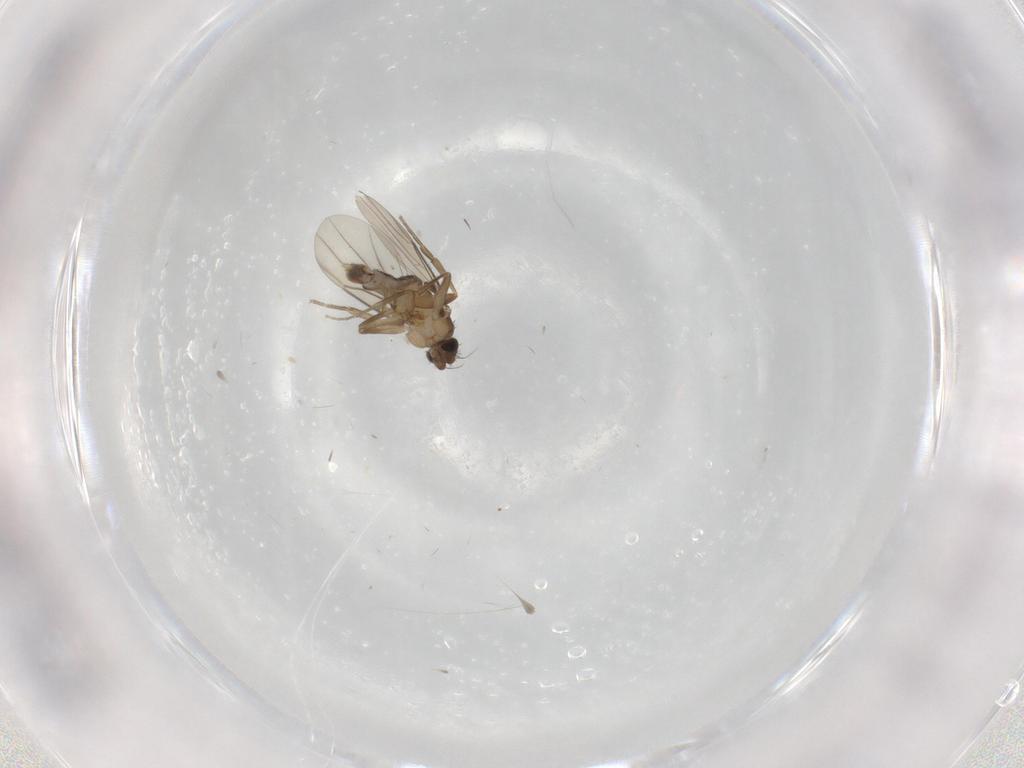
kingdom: Animalia
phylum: Arthropoda
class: Insecta
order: Diptera
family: Phoridae
